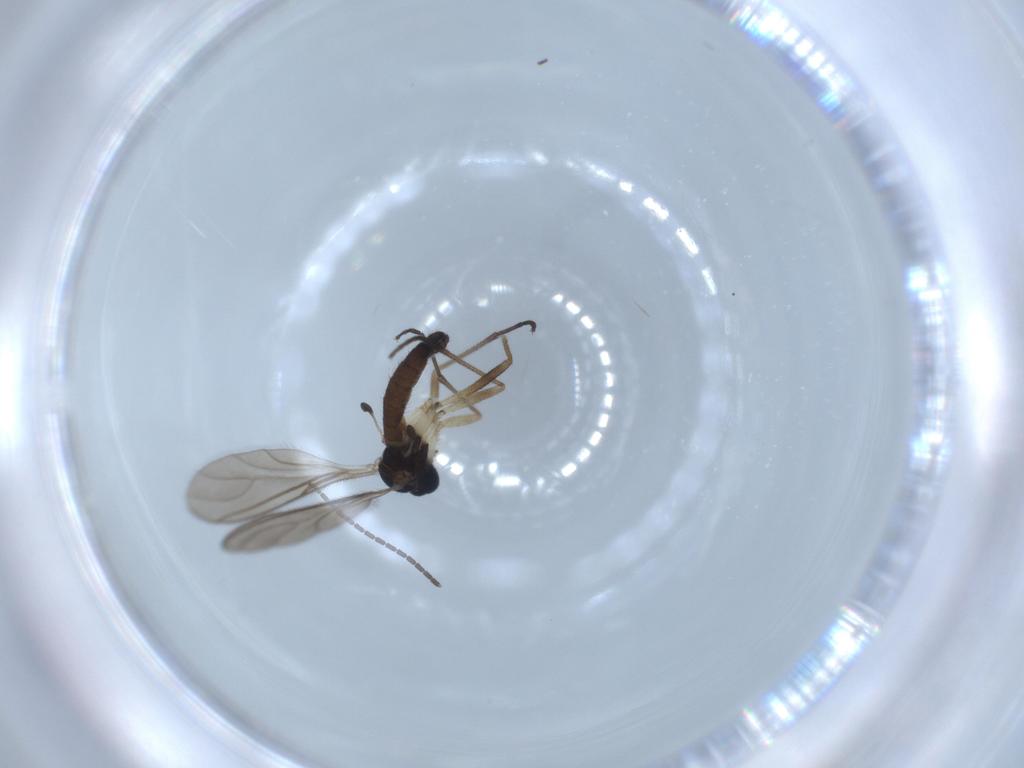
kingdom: Animalia
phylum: Arthropoda
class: Insecta
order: Diptera
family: Sciaridae
